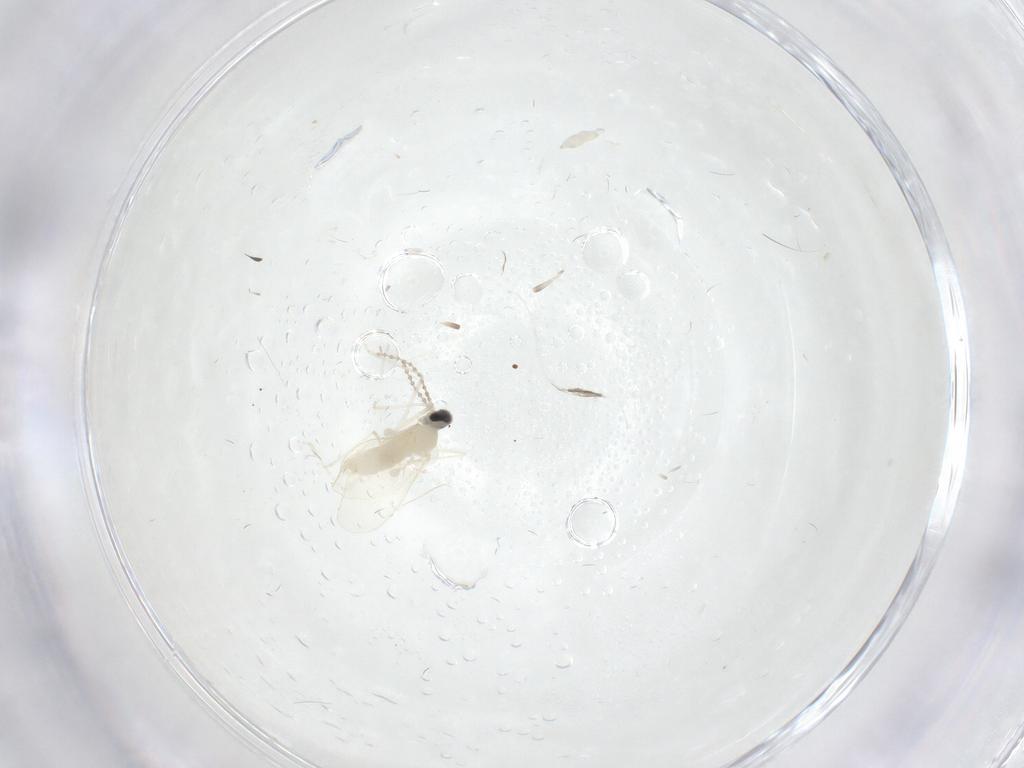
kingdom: Animalia
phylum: Arthropoda
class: Insecta
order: Diptera
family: Cecidomyiidae
